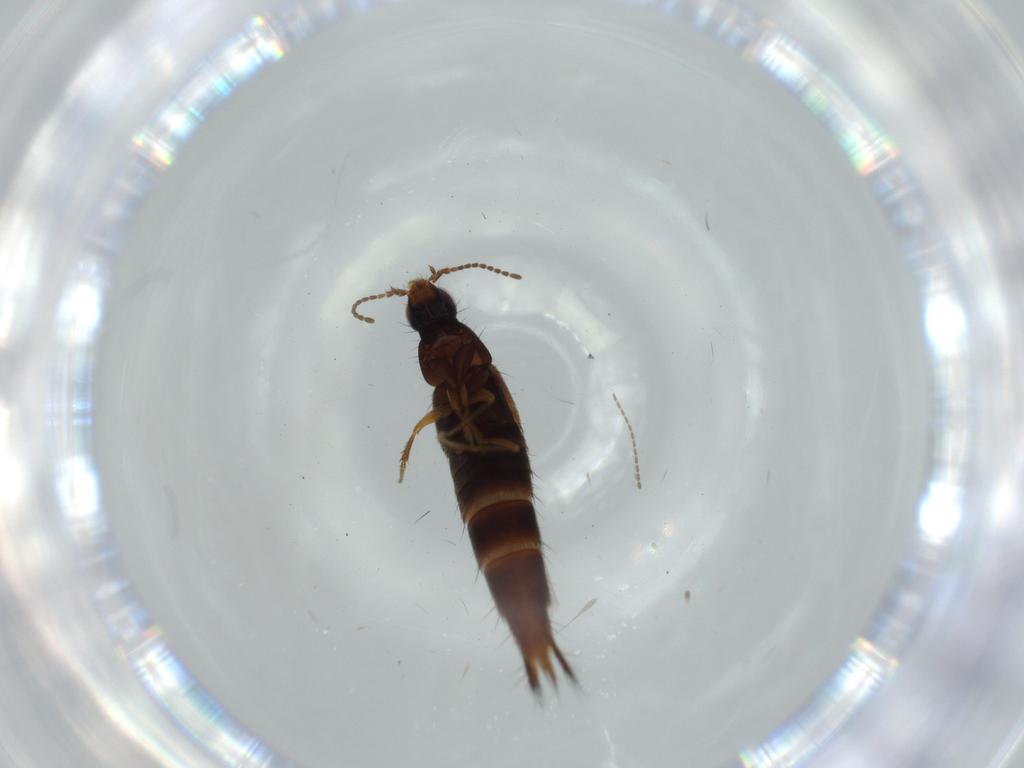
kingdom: Animalia
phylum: Arthropoda
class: Insecta
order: Coleoptera
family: Staphylinidae
